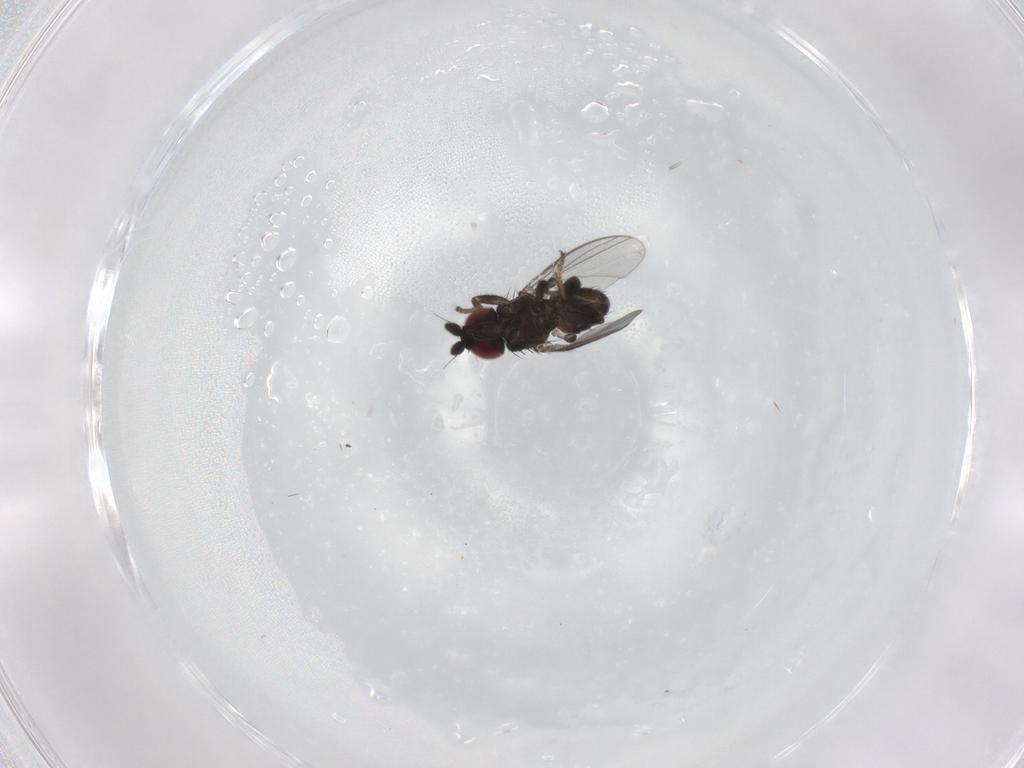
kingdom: Animalia
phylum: Arthropoda
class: Insecta
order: Diptera
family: Milichiidae
